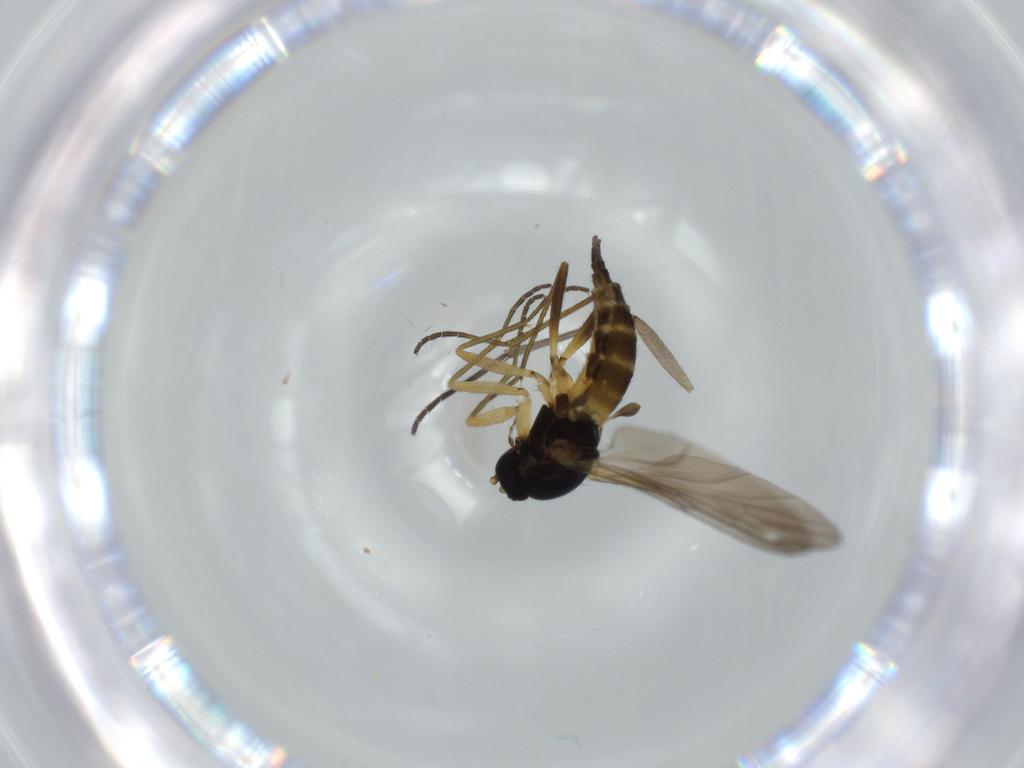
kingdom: Animalia
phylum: Arthropoda
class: Insecta
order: Diptera
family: Sciaridae
